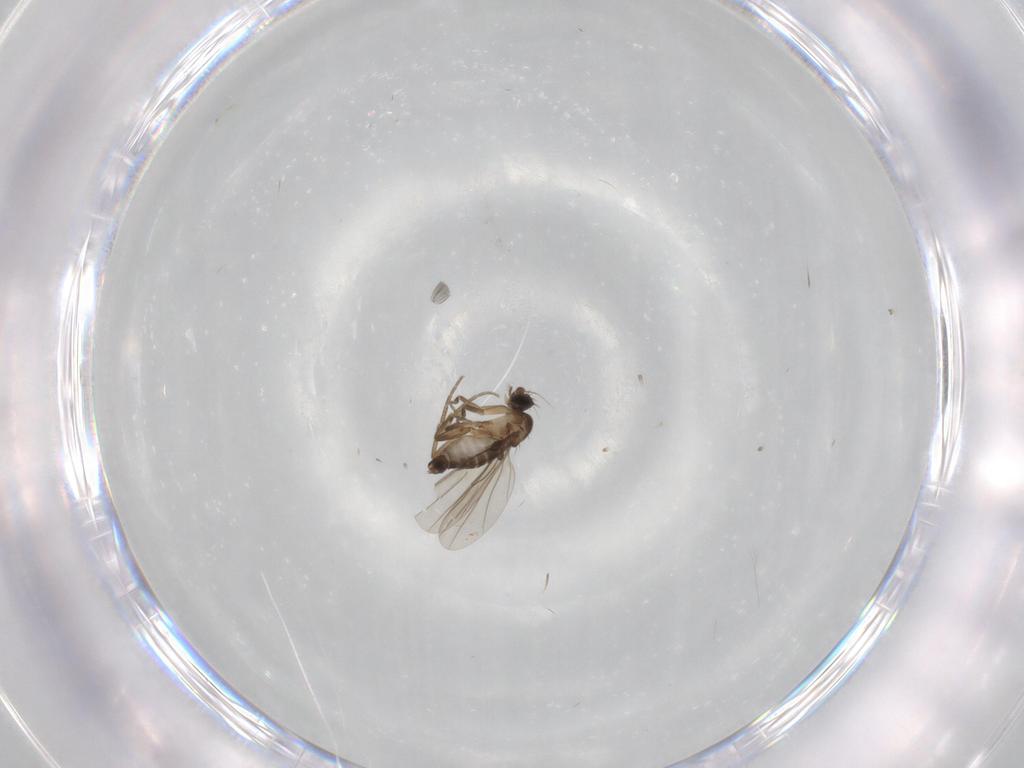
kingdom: Animalia
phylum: Arthropoda
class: Insecta
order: Diptera
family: Phoridae
